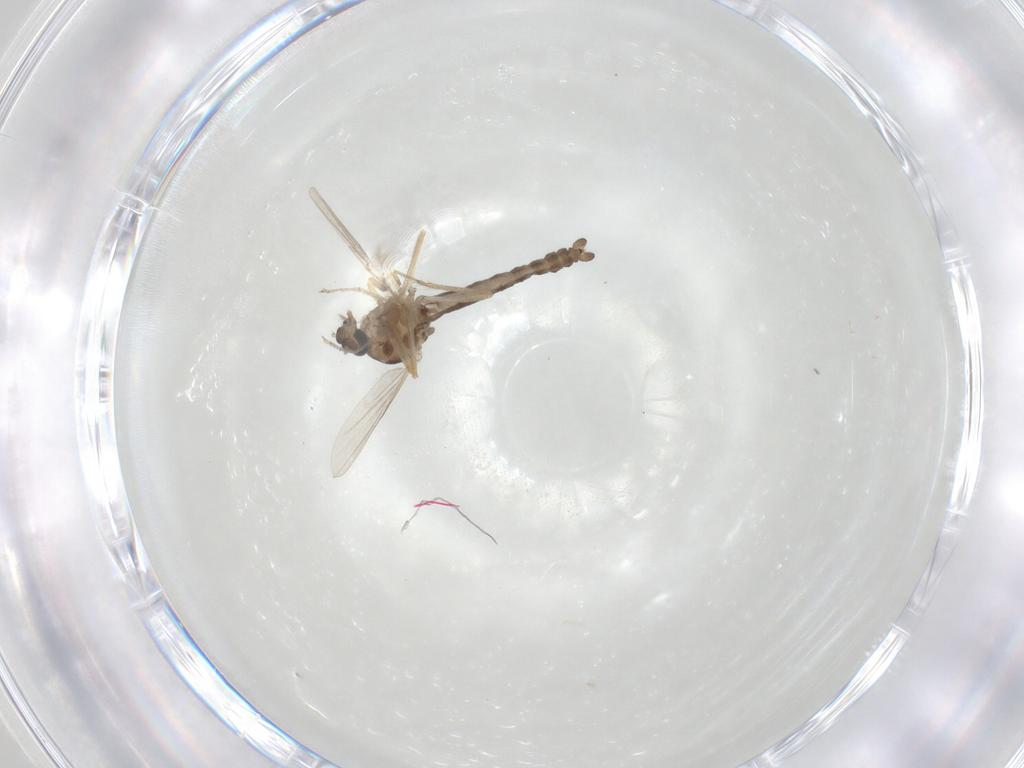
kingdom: Animalia
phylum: Arthropoda
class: Insecta
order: Diptera
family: Ceratopogonidae
